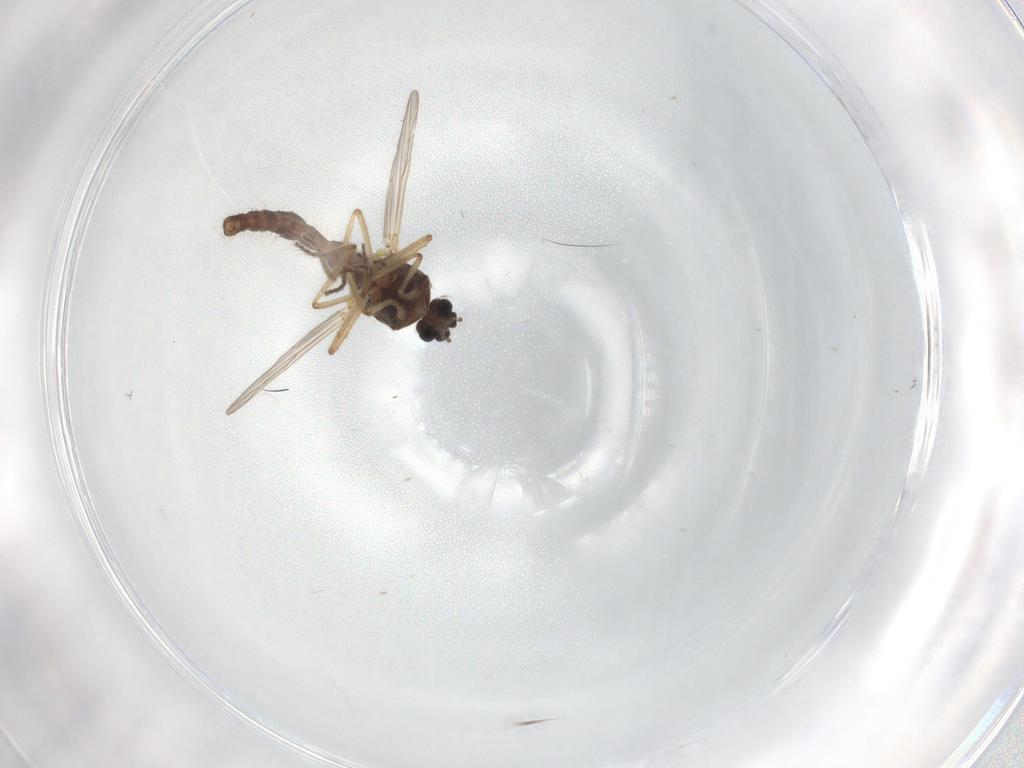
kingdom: Animalia
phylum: Arthropoda
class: Insecta
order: Diptera
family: Ceratopogonidae
